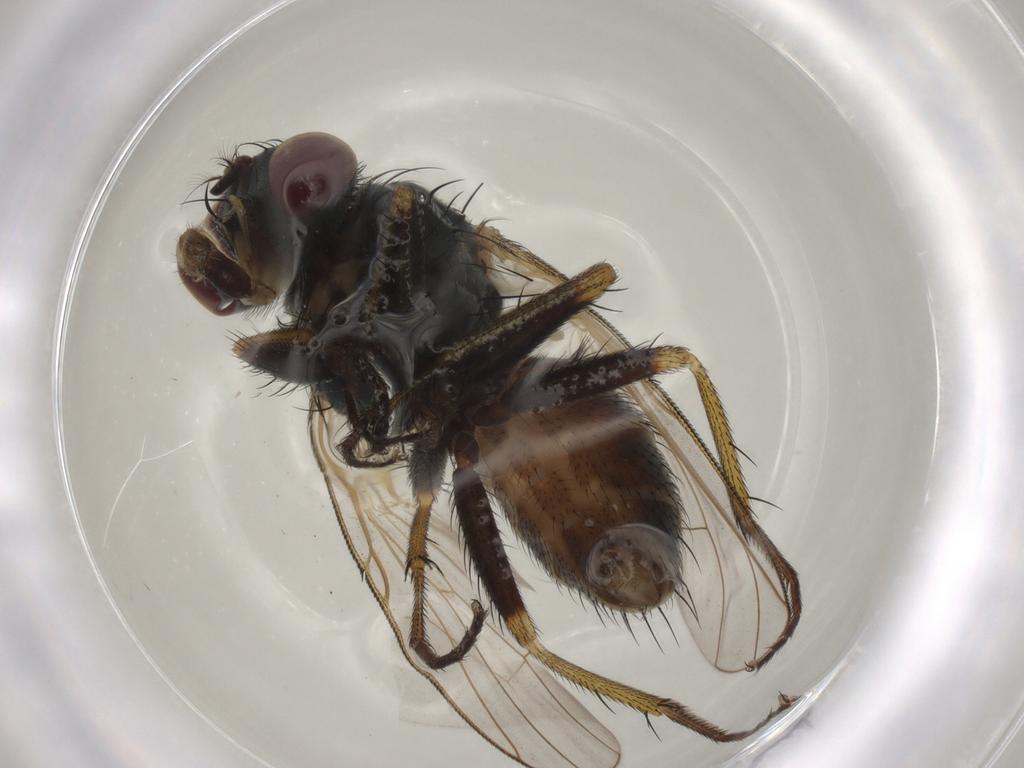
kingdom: Animalia
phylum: Arthropoda
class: Insecta
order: Diptera
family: Phoridae
